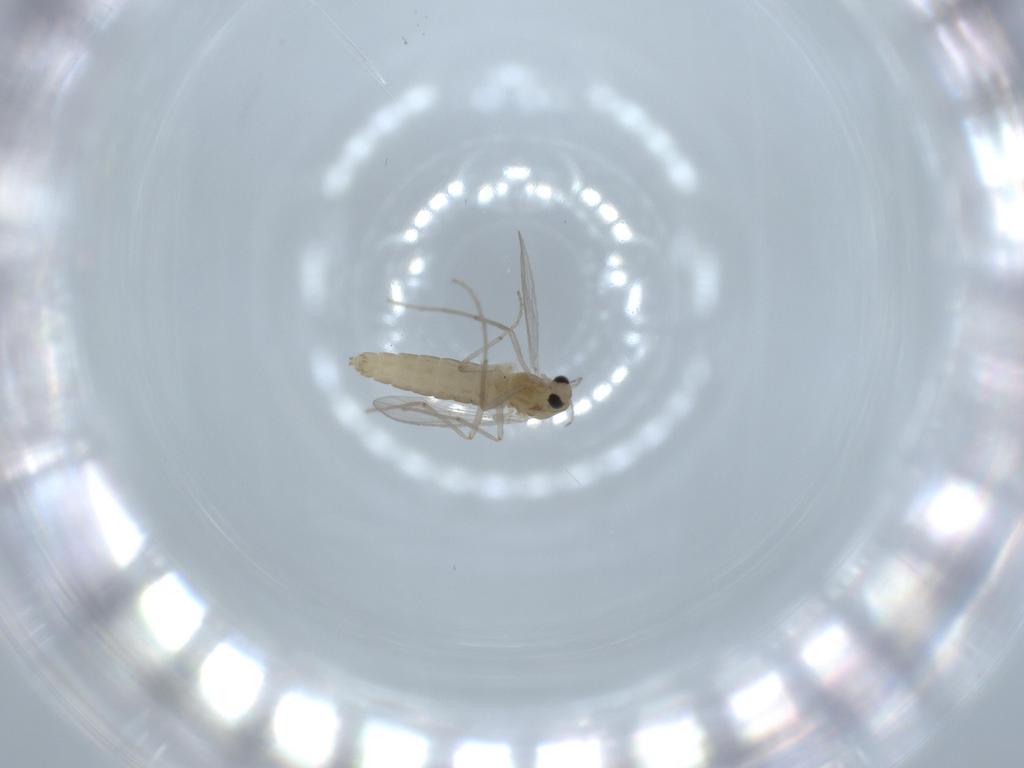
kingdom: Animalia
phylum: Arthropoda
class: Insecta
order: Diptera
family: Chironomidae
